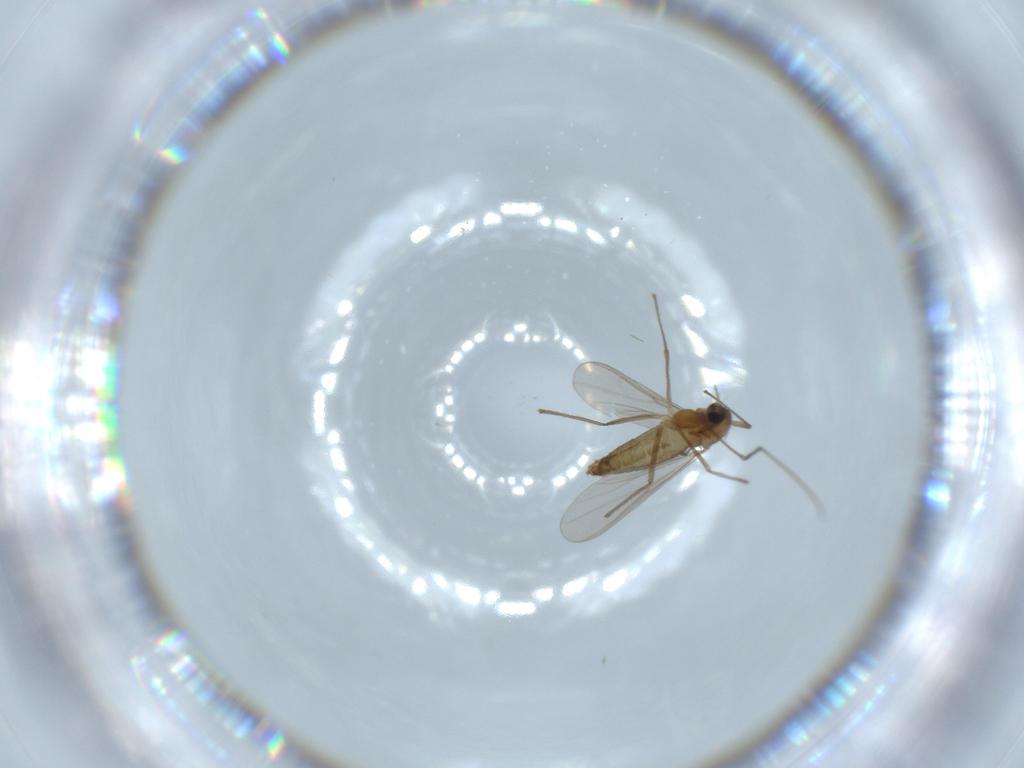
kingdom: Animalia
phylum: Arthropoda
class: Insecta
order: Diptera
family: Chironomidae
